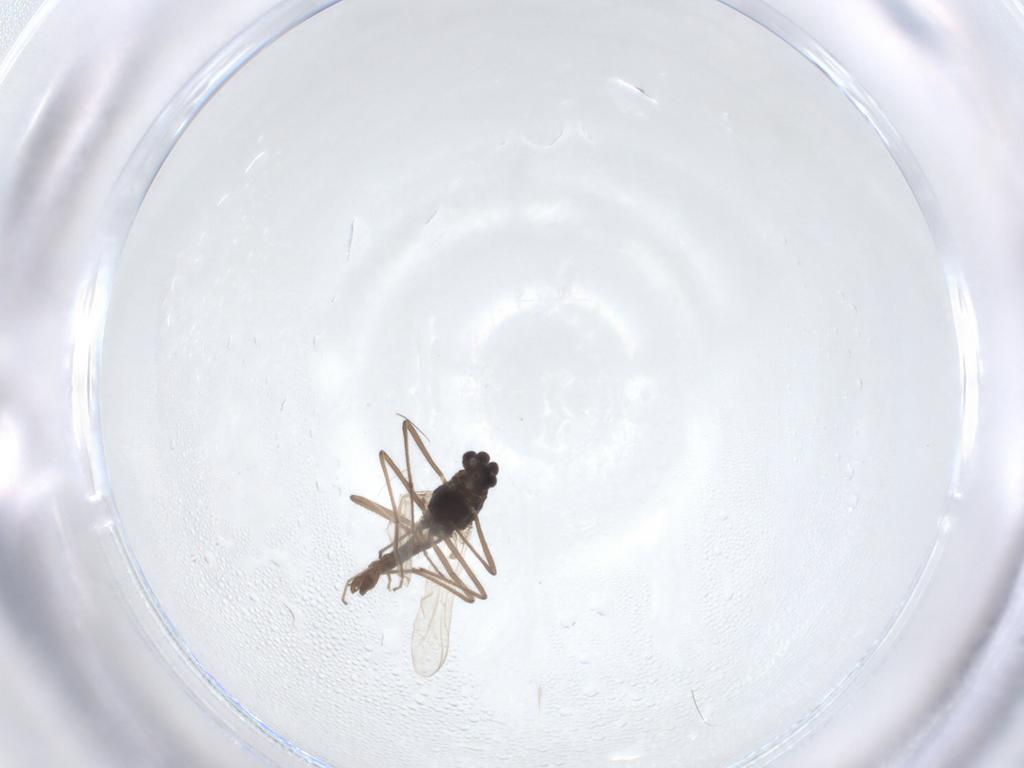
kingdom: Animalia
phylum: Arthropoda
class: Insecta
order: Diptera
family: Chironomidae
